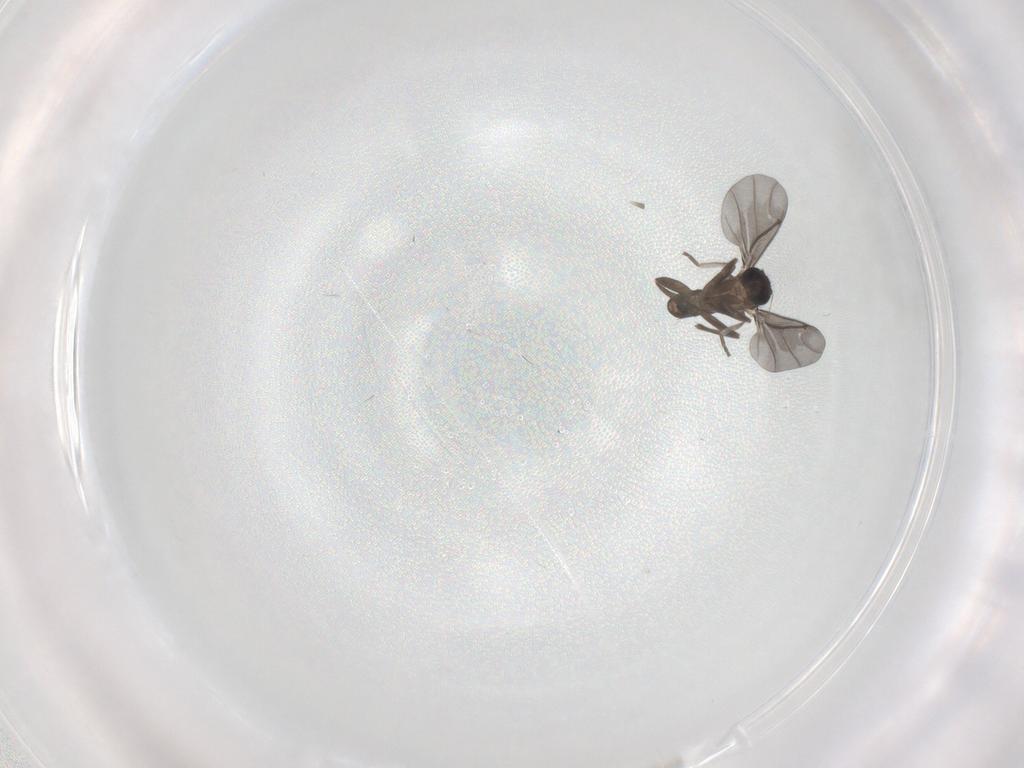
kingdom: Animalia
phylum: Arthropoda
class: Insecta
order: Diptera
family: Phoridae
